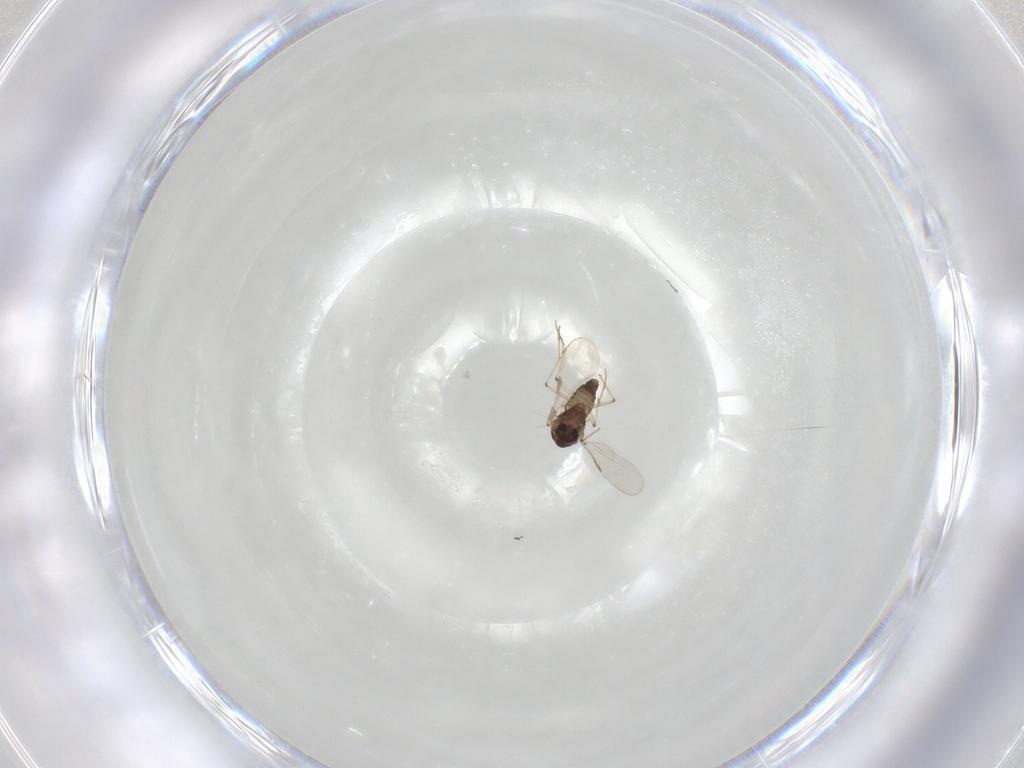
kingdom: Animalia
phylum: Arthropoda
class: Insecta
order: Diptera
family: Chironomidae
